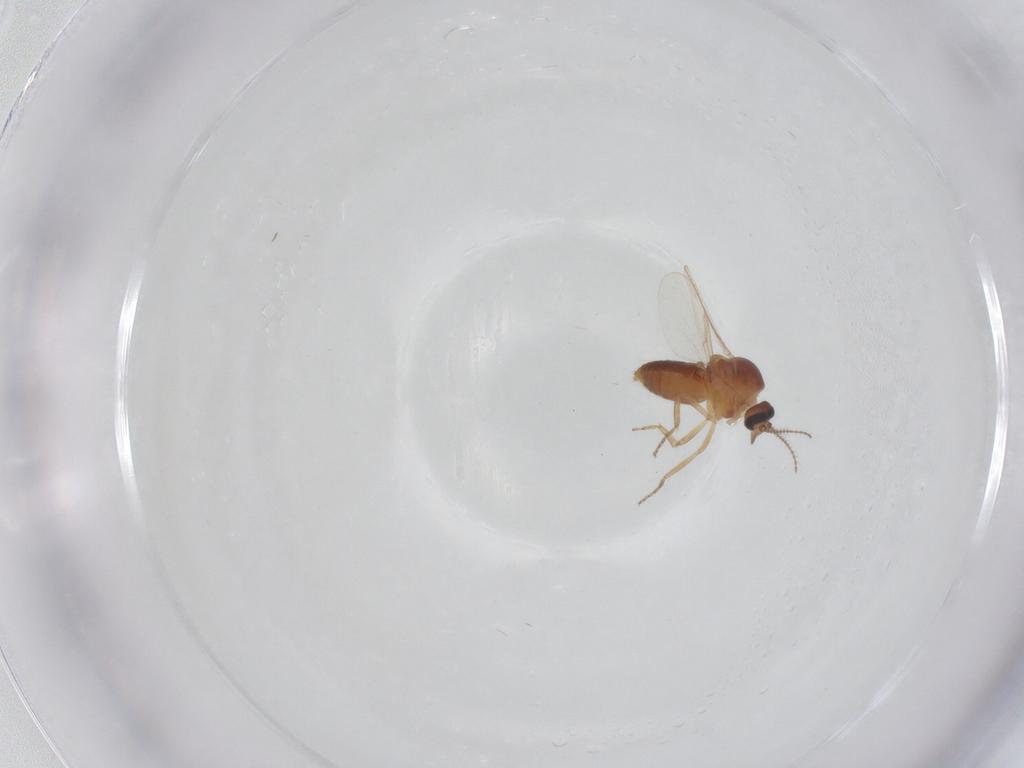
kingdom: Animalia
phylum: Arthropoda
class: Insecta
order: Diptera
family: Ceratopogonidae
